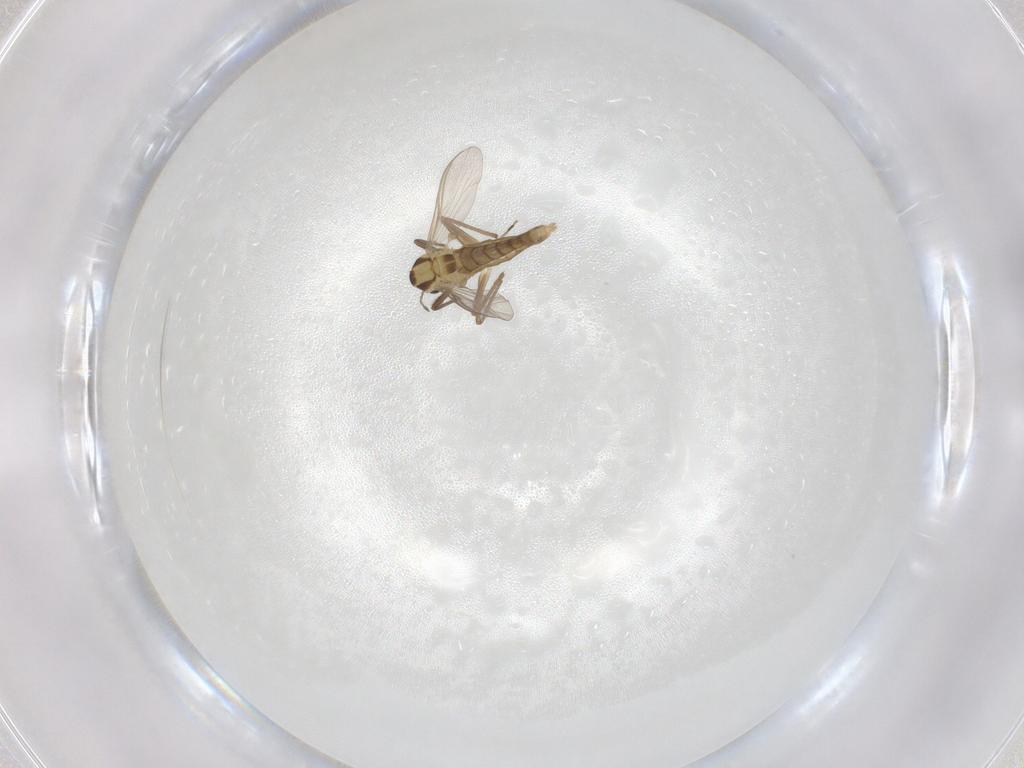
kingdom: Animalia
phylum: Arthropoda
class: Insecta
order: Diptera
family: Chironomidae
